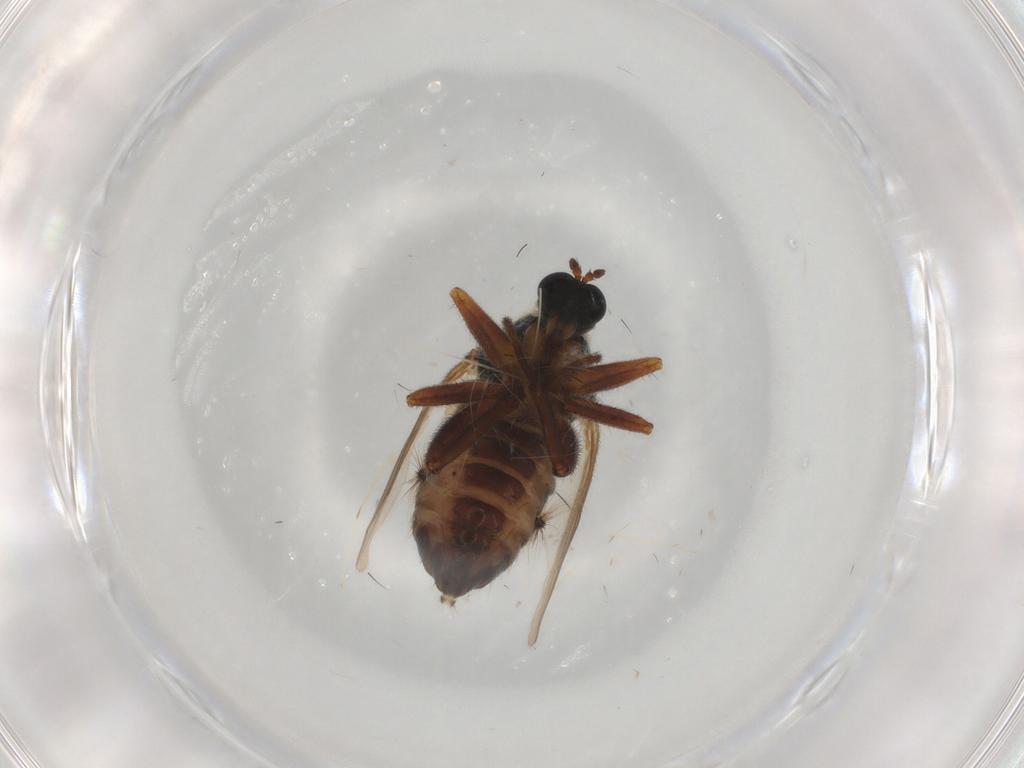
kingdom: Animalia
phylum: Arthropoda
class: Insecta
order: Diptera
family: Hybotidae
